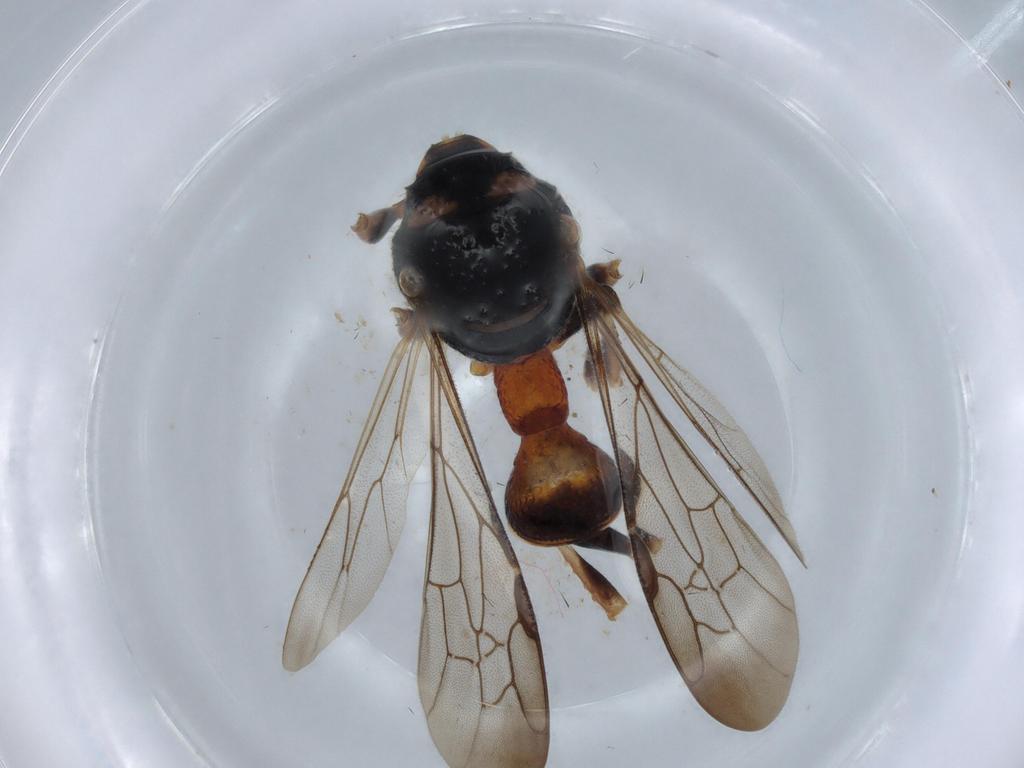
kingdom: Animalia
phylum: Arthropoda
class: Insecta
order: Hymenoptera
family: Crabronidae
